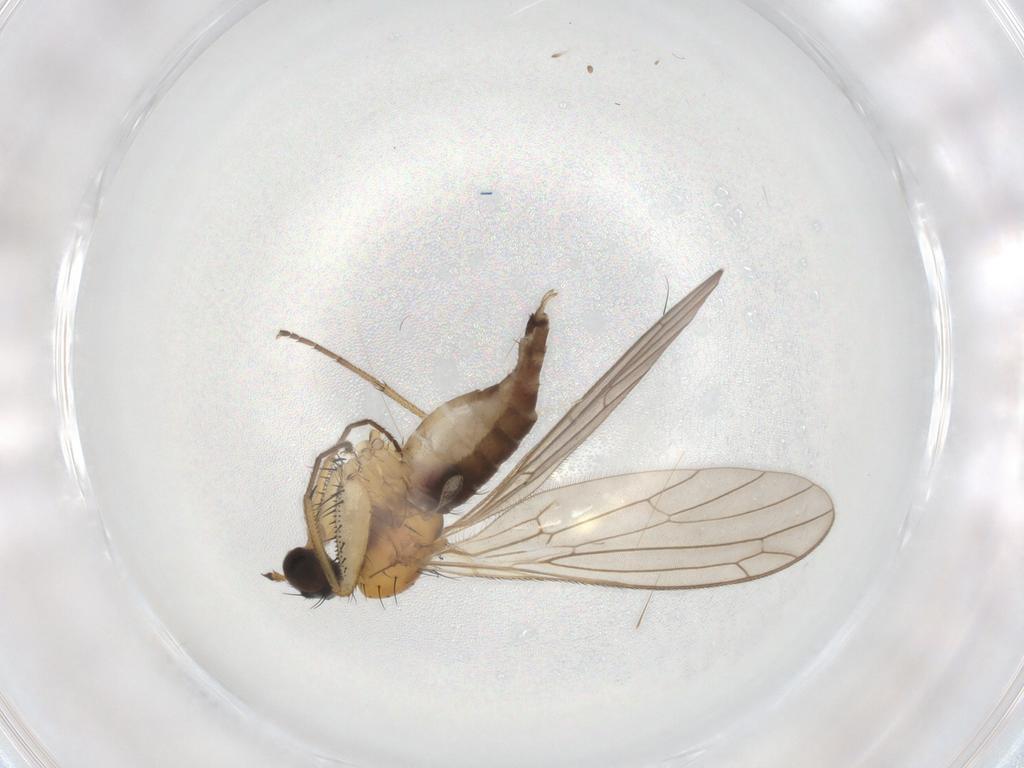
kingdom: Animalia
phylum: Arthropoda
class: Insecta
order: Diptera
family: Empididae
